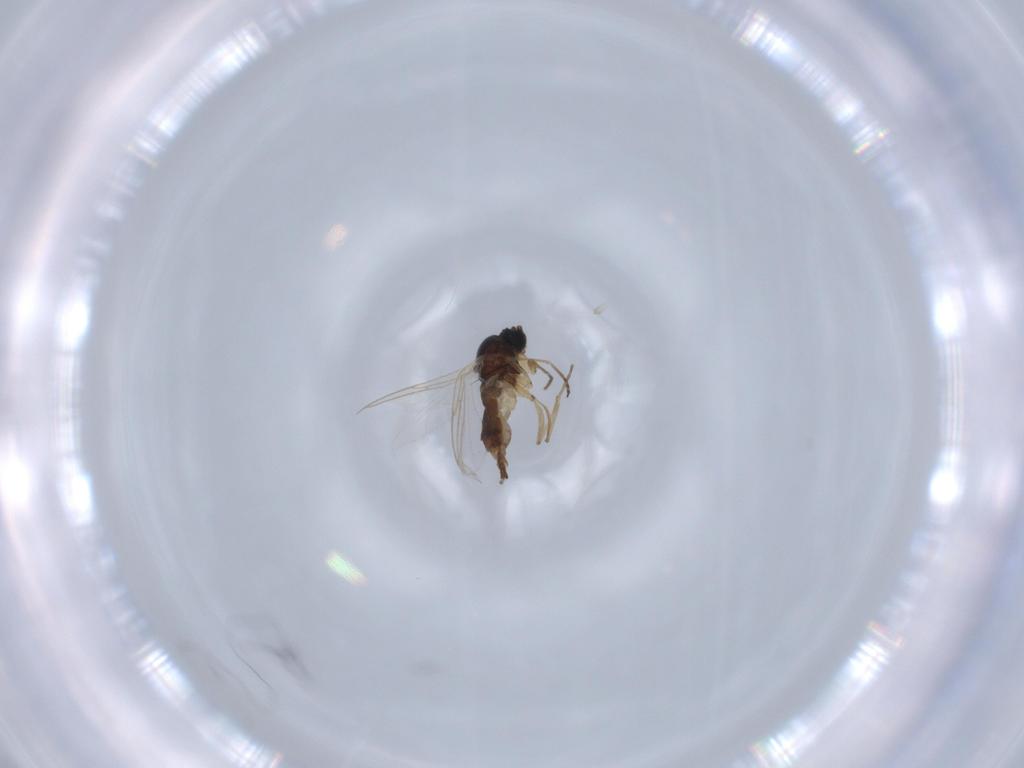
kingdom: Animalia
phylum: Arthropoda
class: Insecta
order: Diptera
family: Sciaridae
